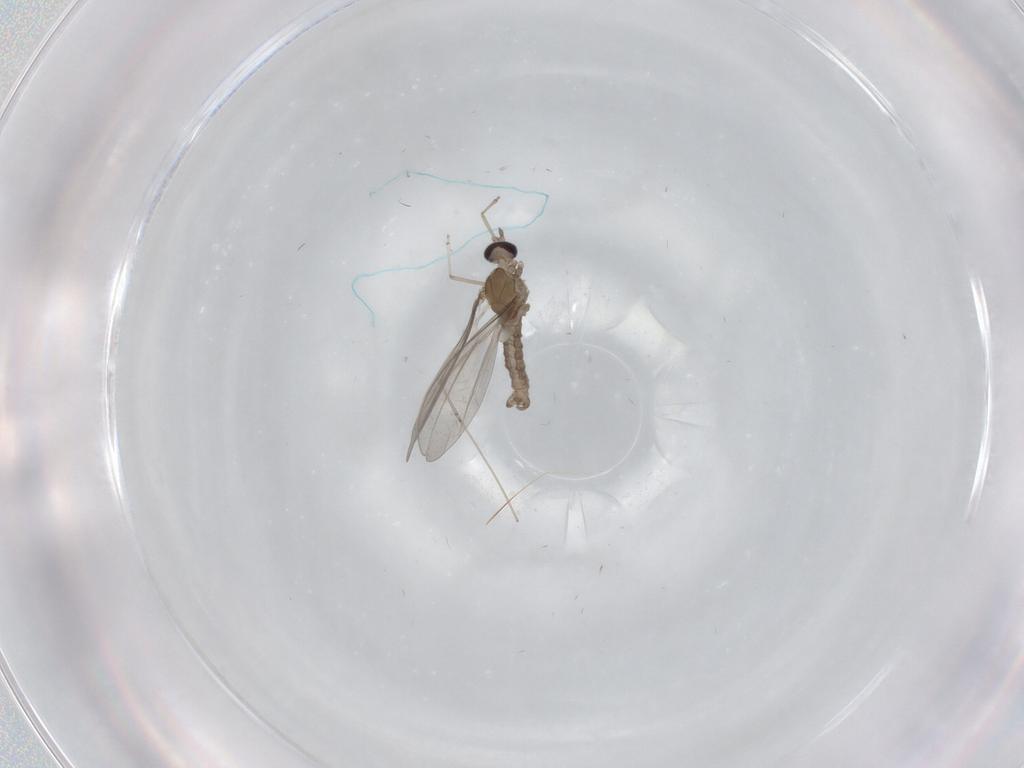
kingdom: Animalia
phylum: Arthropoda
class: Insecta
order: Diptera
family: Cecidomyiidae
